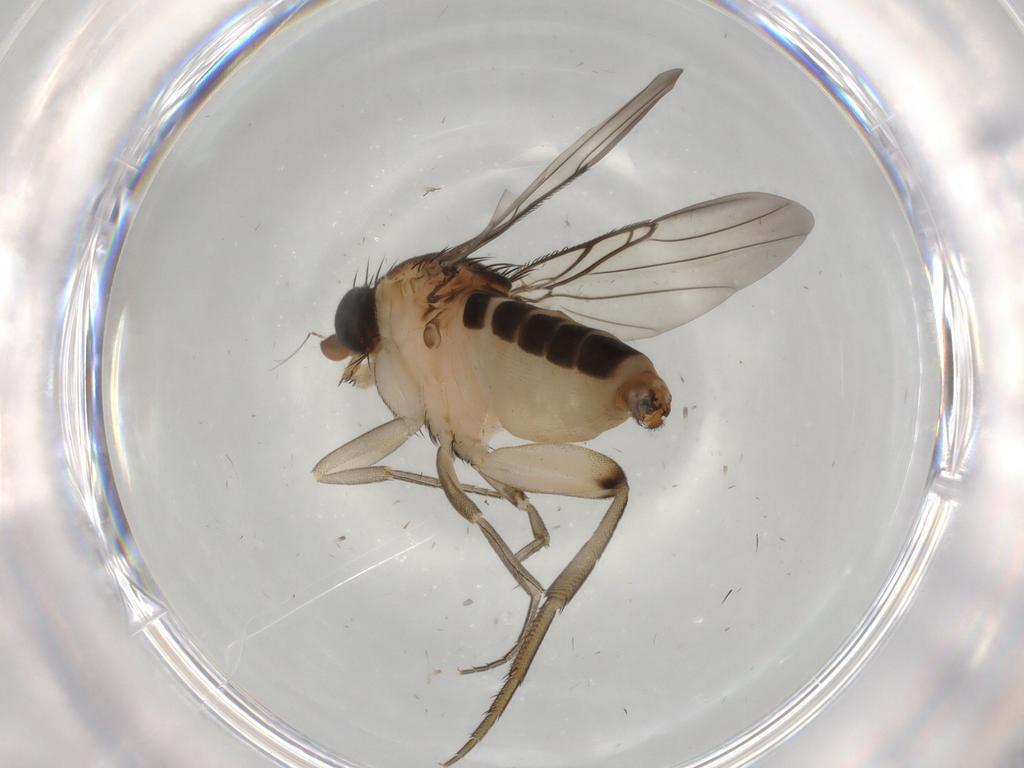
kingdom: Animalia
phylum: Arthropoda
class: Insecta
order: Diptera
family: Phoridae
